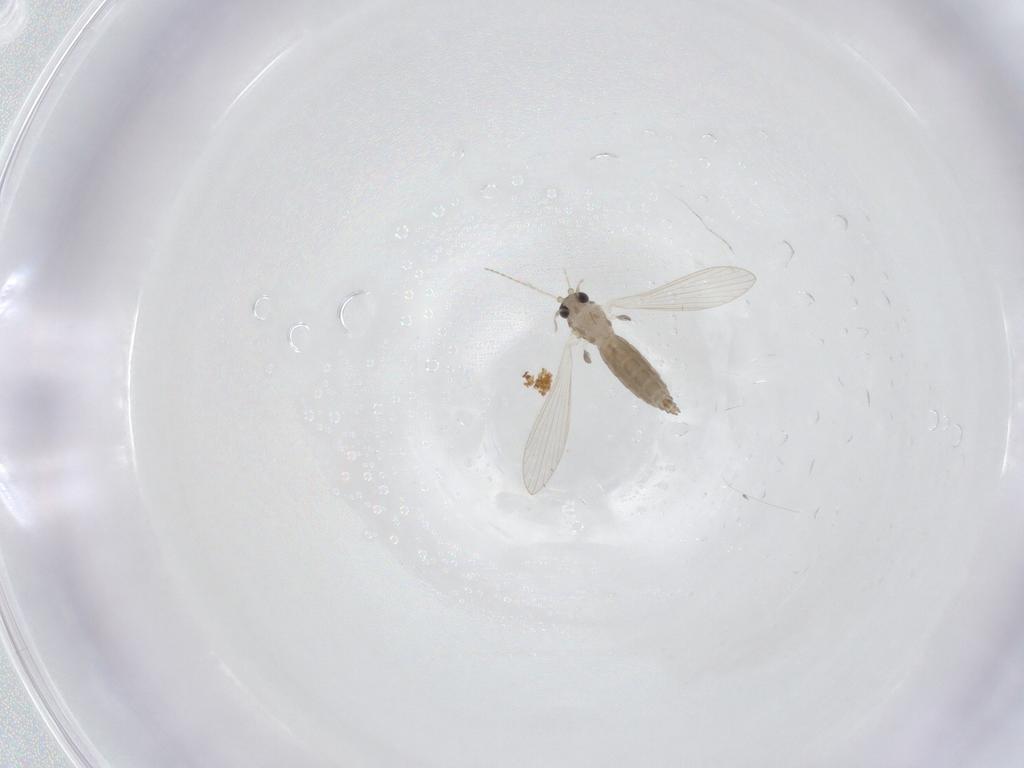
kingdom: Animalia
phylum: Arthropoda
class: Insecta
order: Diptera
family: Psychodidae
